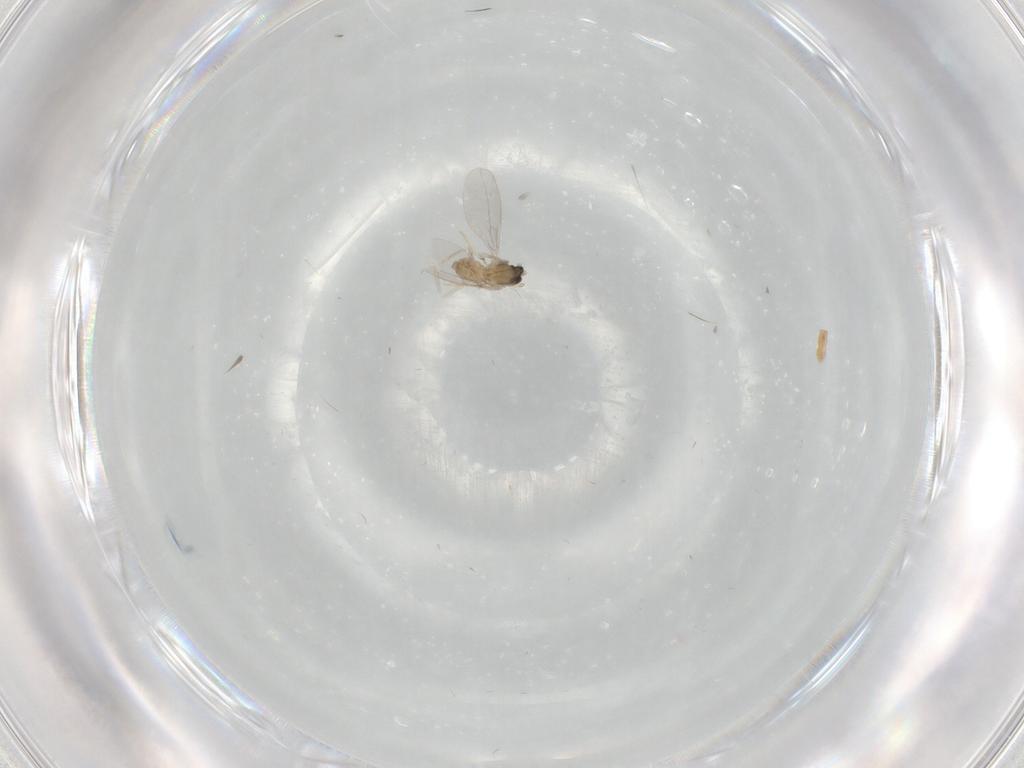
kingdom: Animalia
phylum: Arthropoda
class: Insecta
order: Diptera
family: Cecidomyiidae
